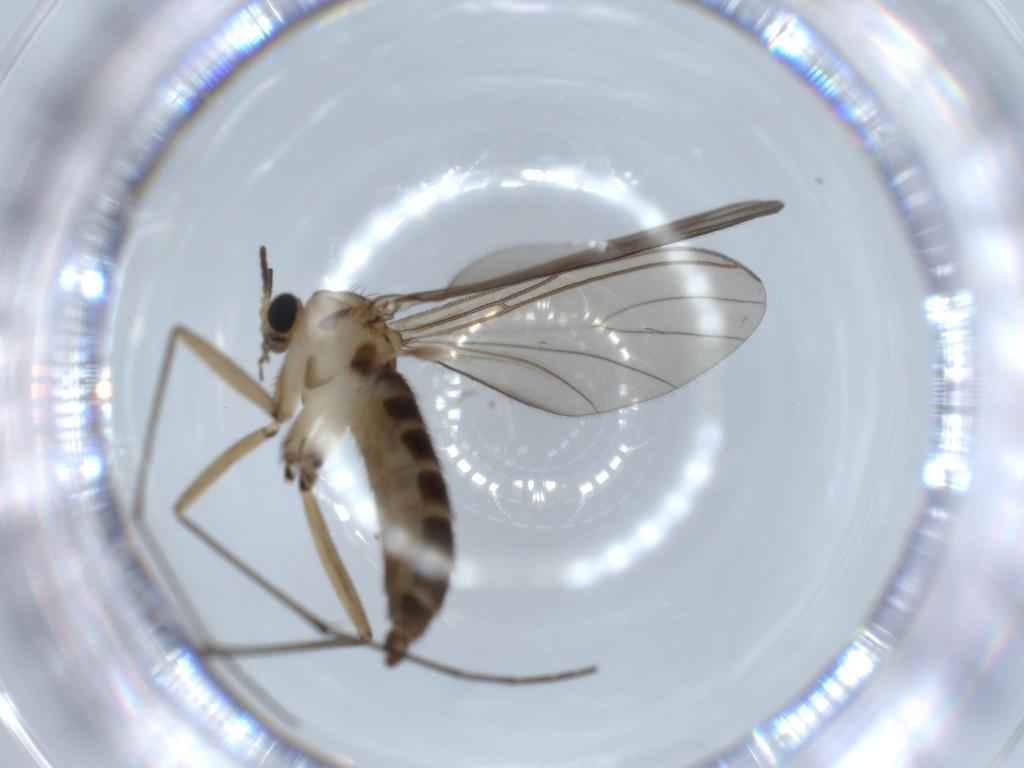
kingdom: Animalia
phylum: Arthropoda
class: Insecta
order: Diptera
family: Sciaridae
